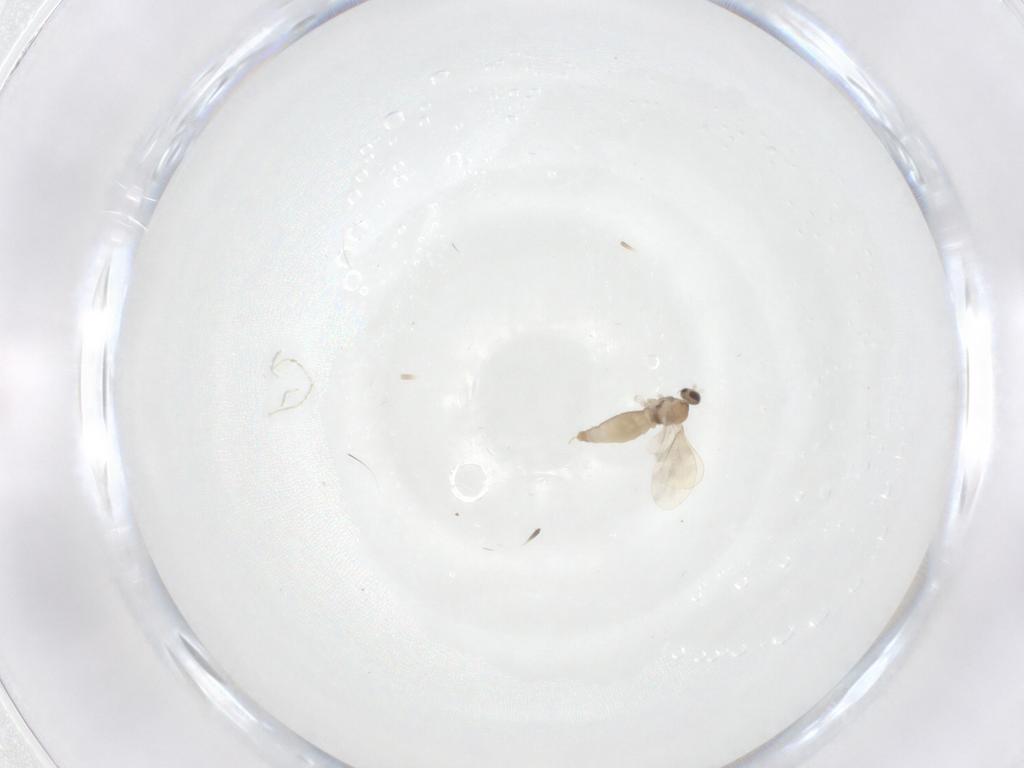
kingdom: Animalia
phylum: Arthropoda
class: Insecta
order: Diptera
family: Cecidomyiidae
